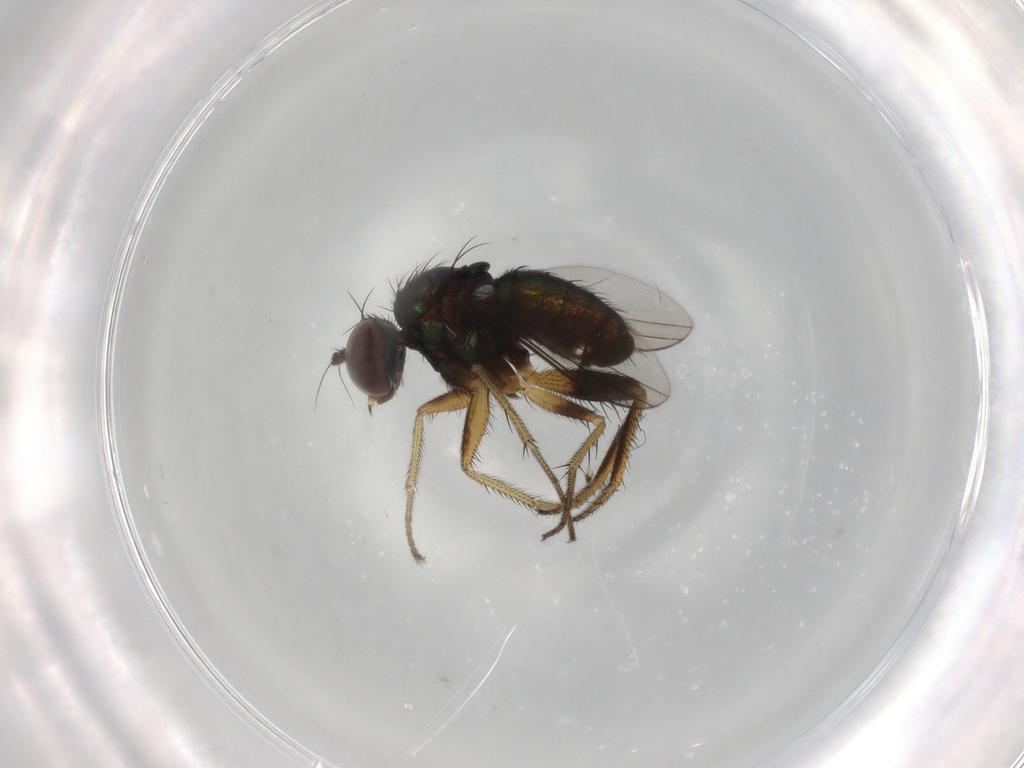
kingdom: Animalia
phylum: Arthropoda
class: Insecta
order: Diptera
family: Dolichopodidae
